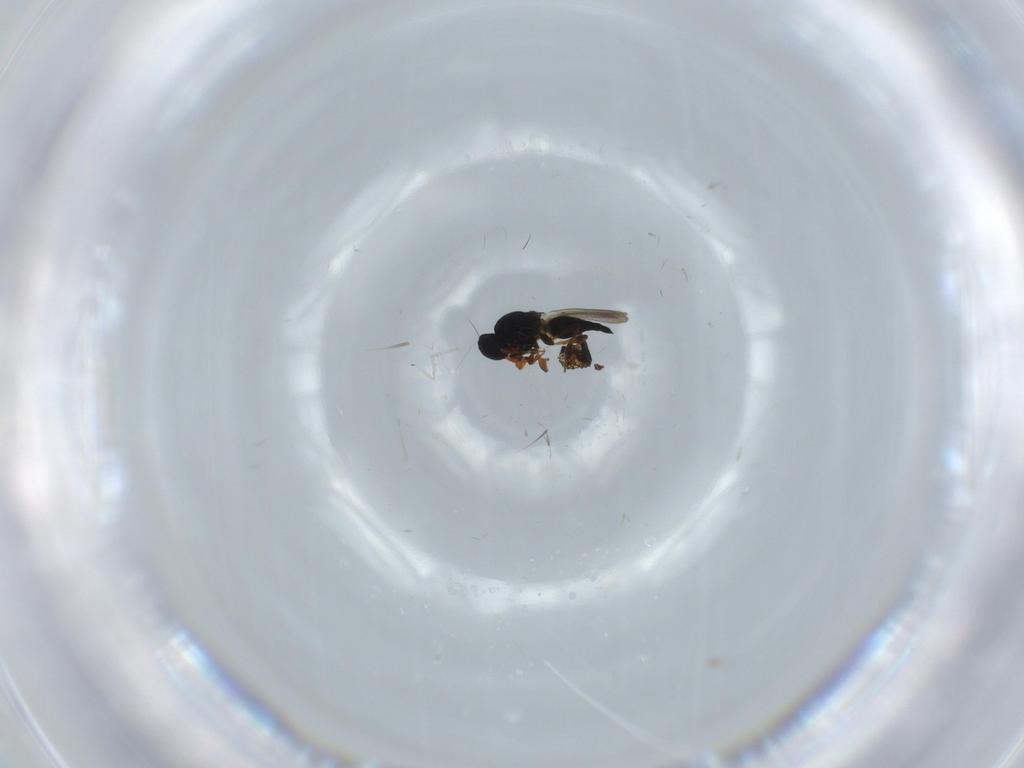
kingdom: Animalia
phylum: Arthropoda
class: Insecta
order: Hymenoptera
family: Platygastridae
